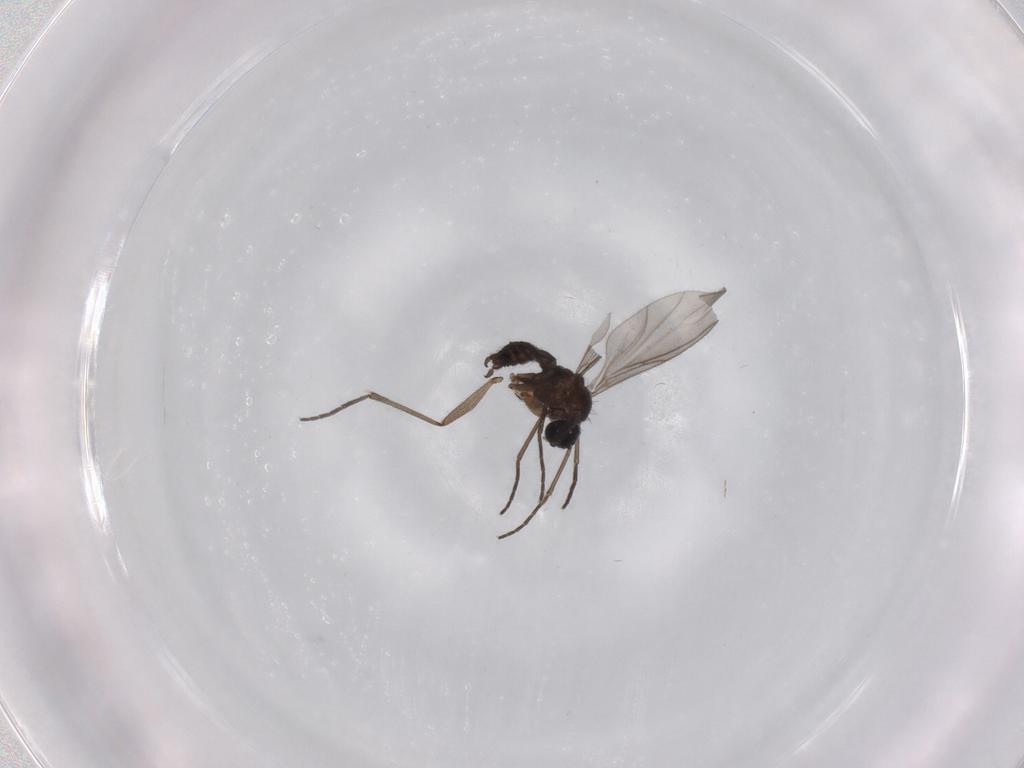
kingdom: Animalia
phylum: Arthropoda
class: Insecta
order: Diptera
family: Sciaridae
